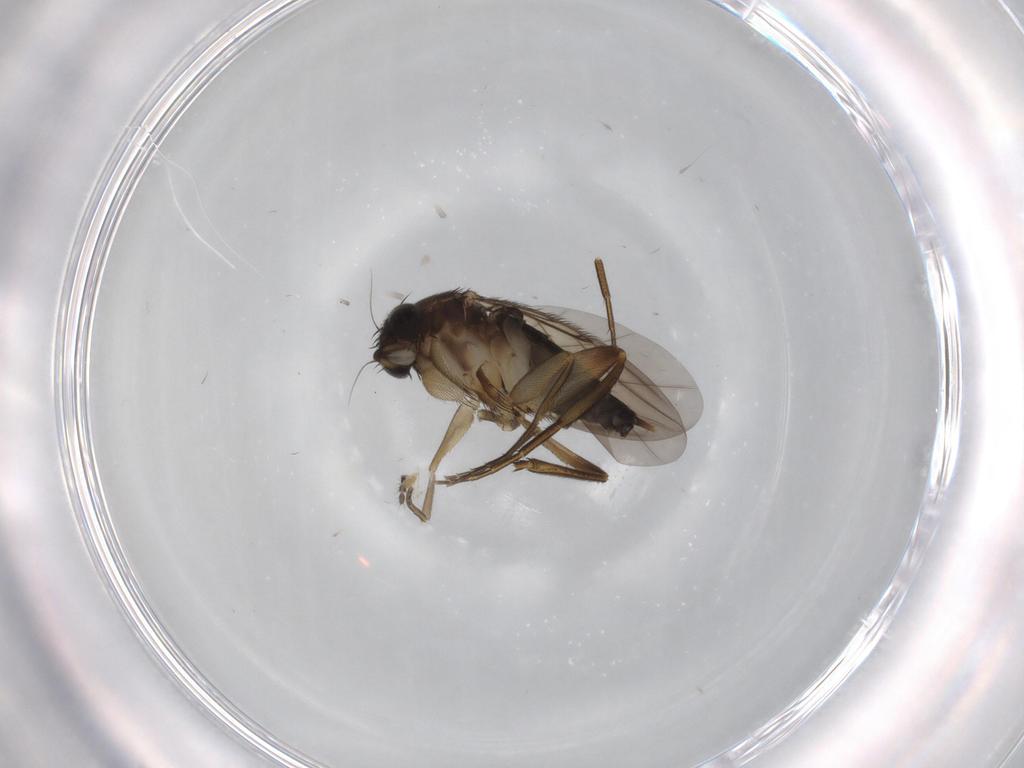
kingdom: Animalia
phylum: Arthropoda
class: Insecta
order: Diptera
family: Phoridae
